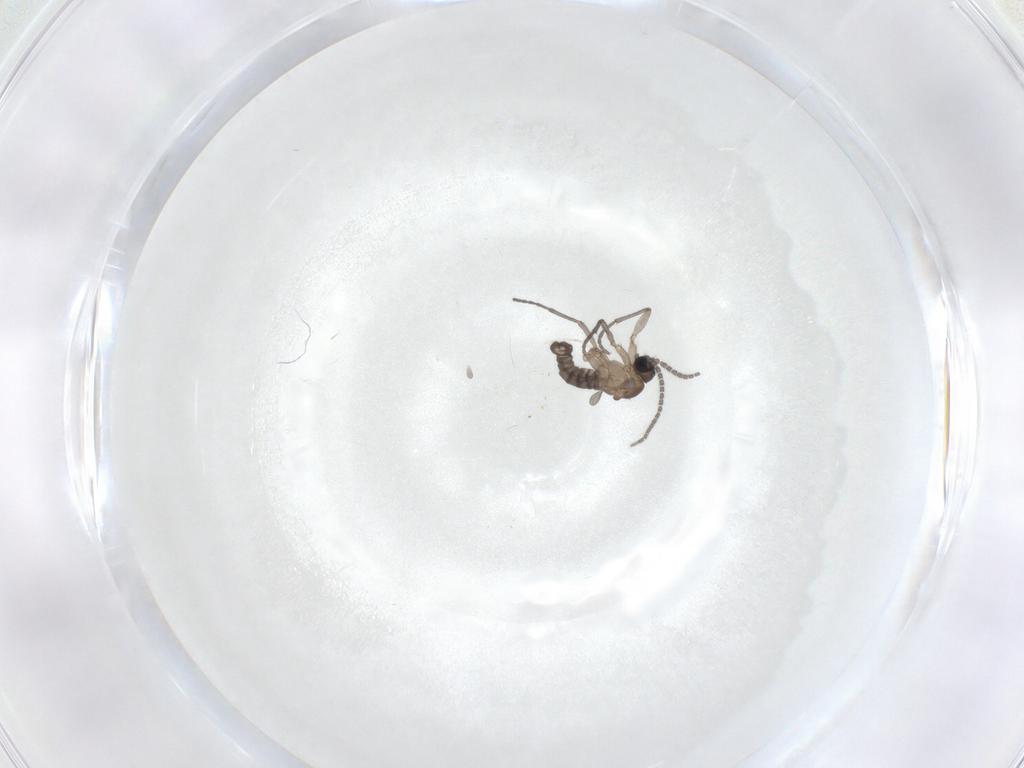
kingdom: Animalia
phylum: Arthropoda
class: Insecta
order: Diptera
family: Sciaridae
